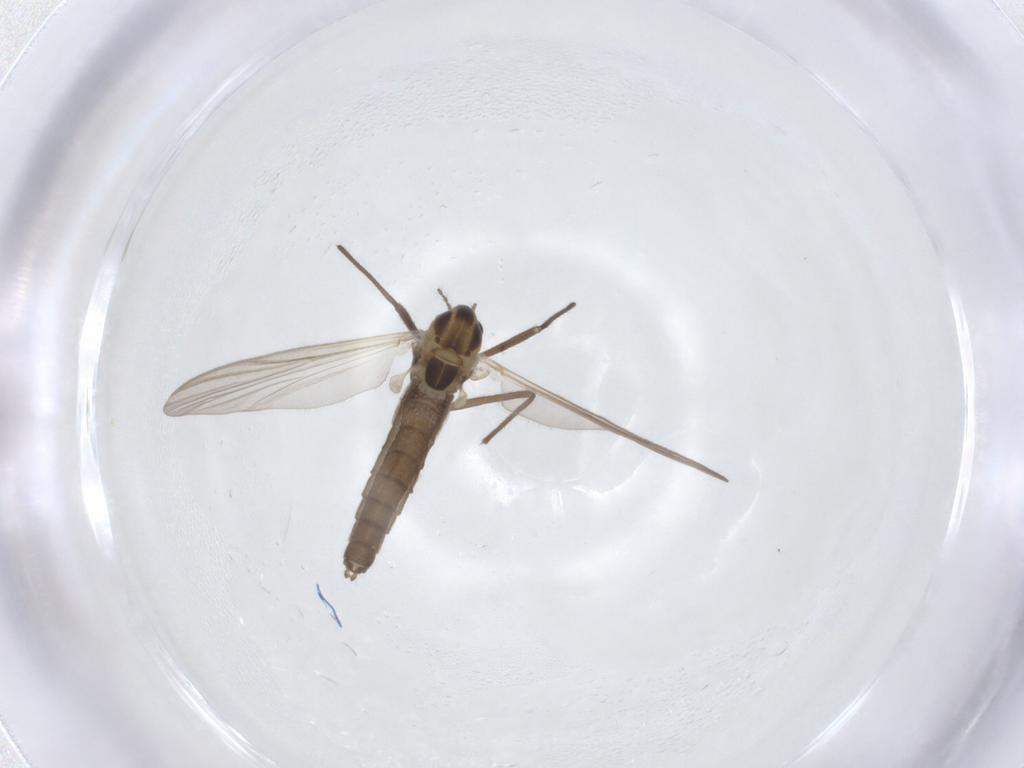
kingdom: Animalia
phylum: Arthropoda
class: Insecta
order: Diptera
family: Chironomidae
